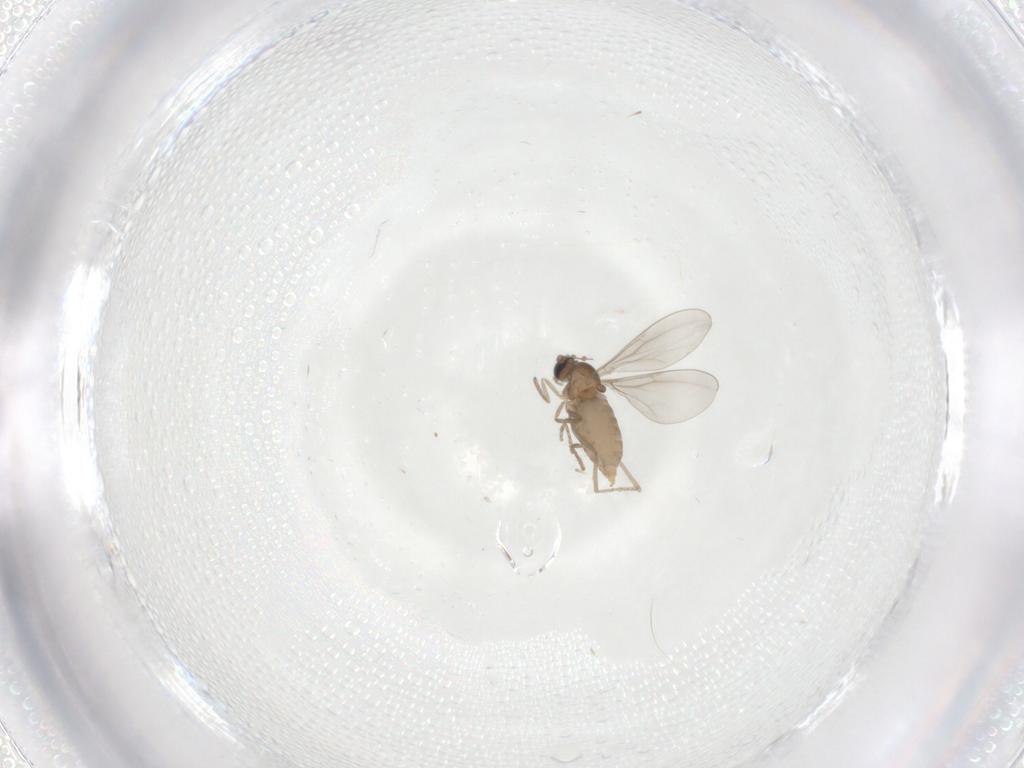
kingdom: Animalia
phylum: Arthropoda
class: Insecta
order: Diptera
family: Cecidomyiidae
